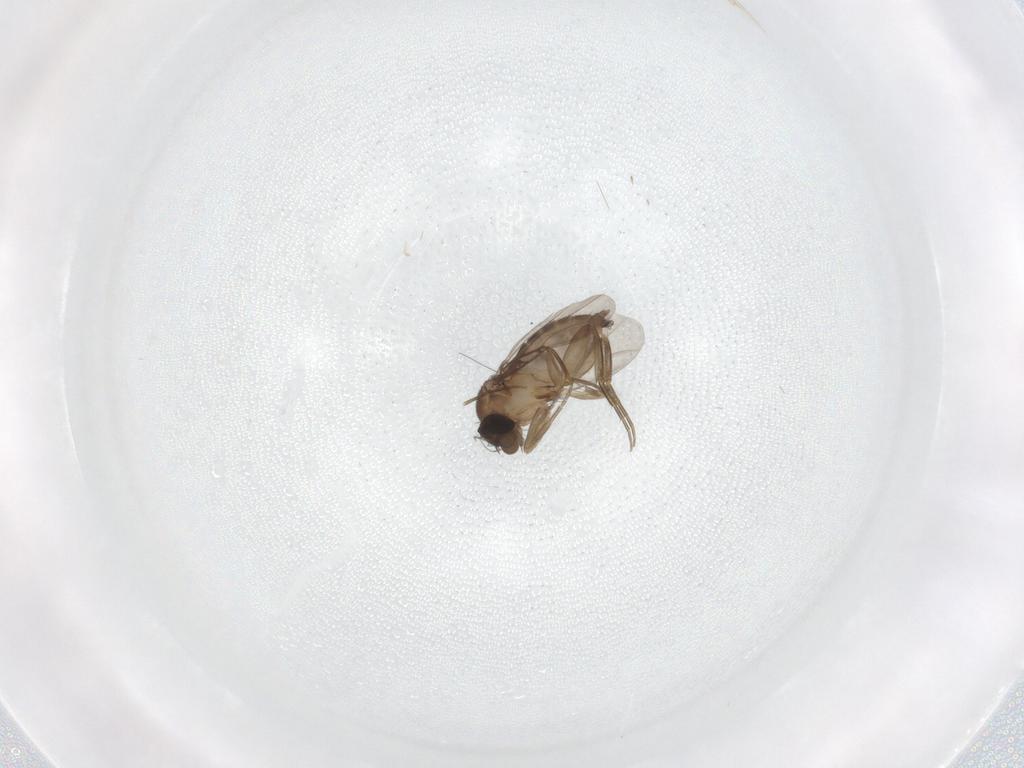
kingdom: Animalia
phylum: Arthropoda
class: Insecta
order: Diptera
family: Phoridae
